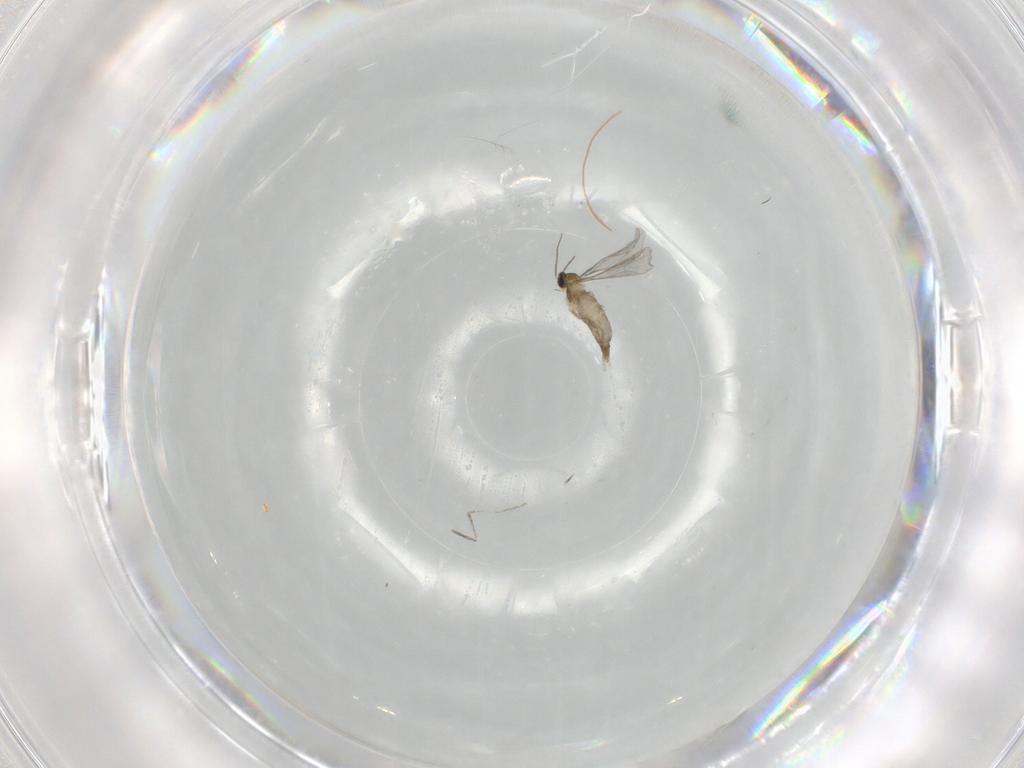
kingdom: Animalia
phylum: Arthropoda
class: Insecta
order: Diptera
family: Cecidomyiidae
